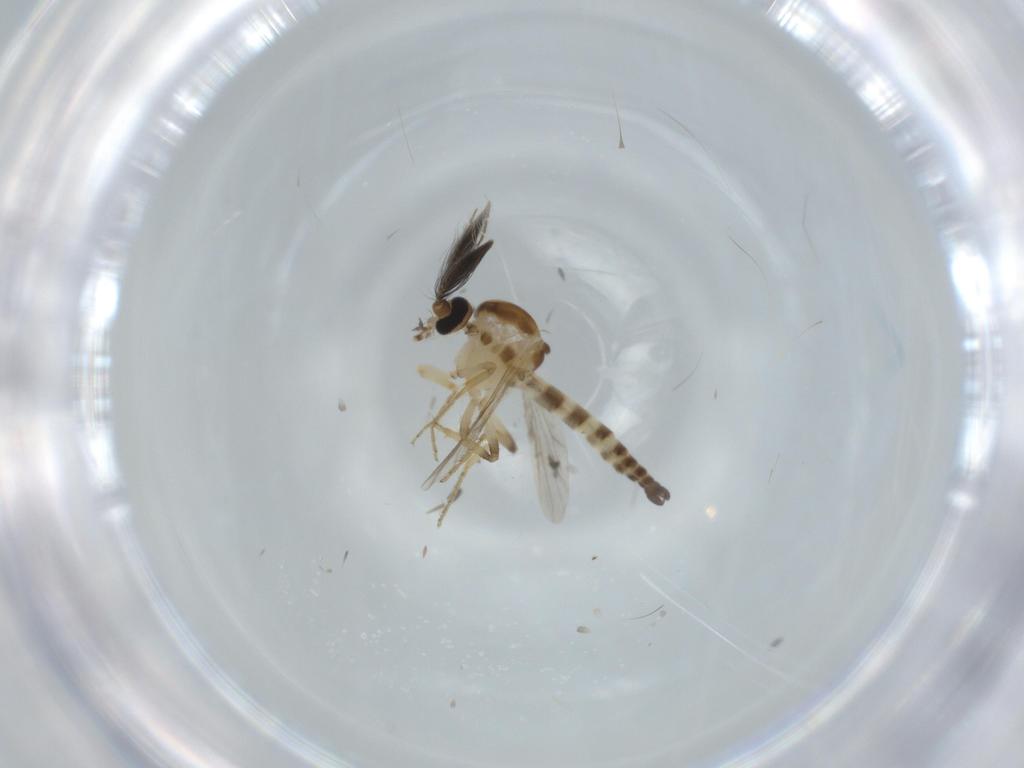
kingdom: Animalia
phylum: Arthropoda
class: Insecta
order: Diptera
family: Ceratopogonidae
